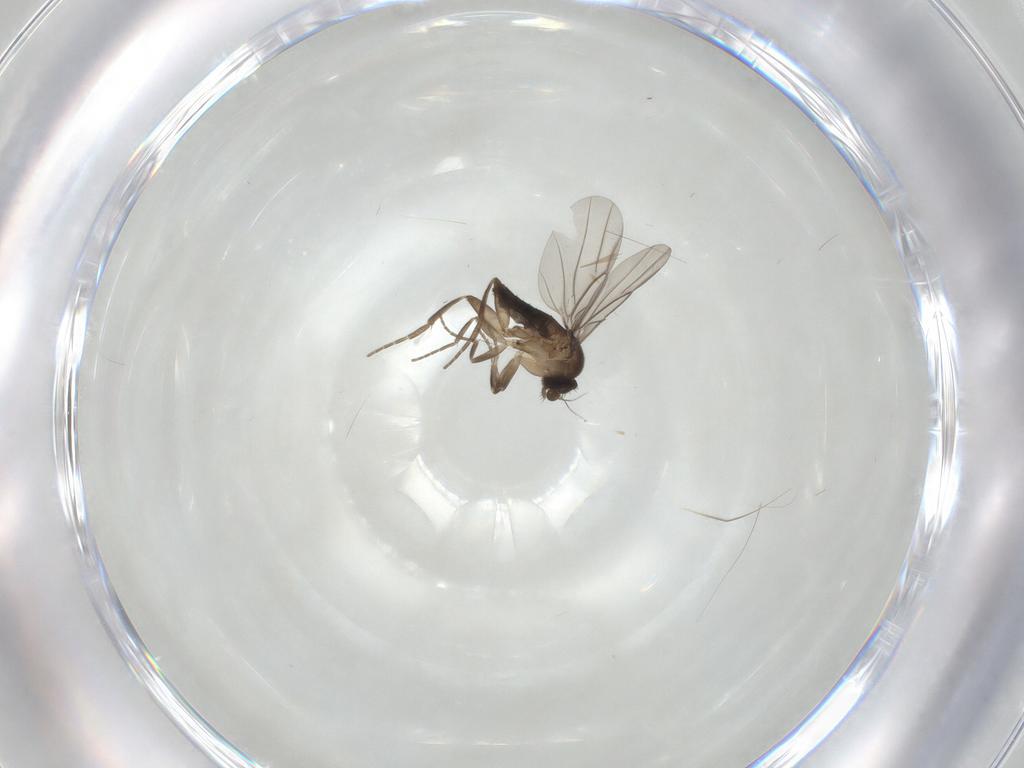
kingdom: Animalia
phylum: Arthropoda
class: Insecta
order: Diptera
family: Phoridae
